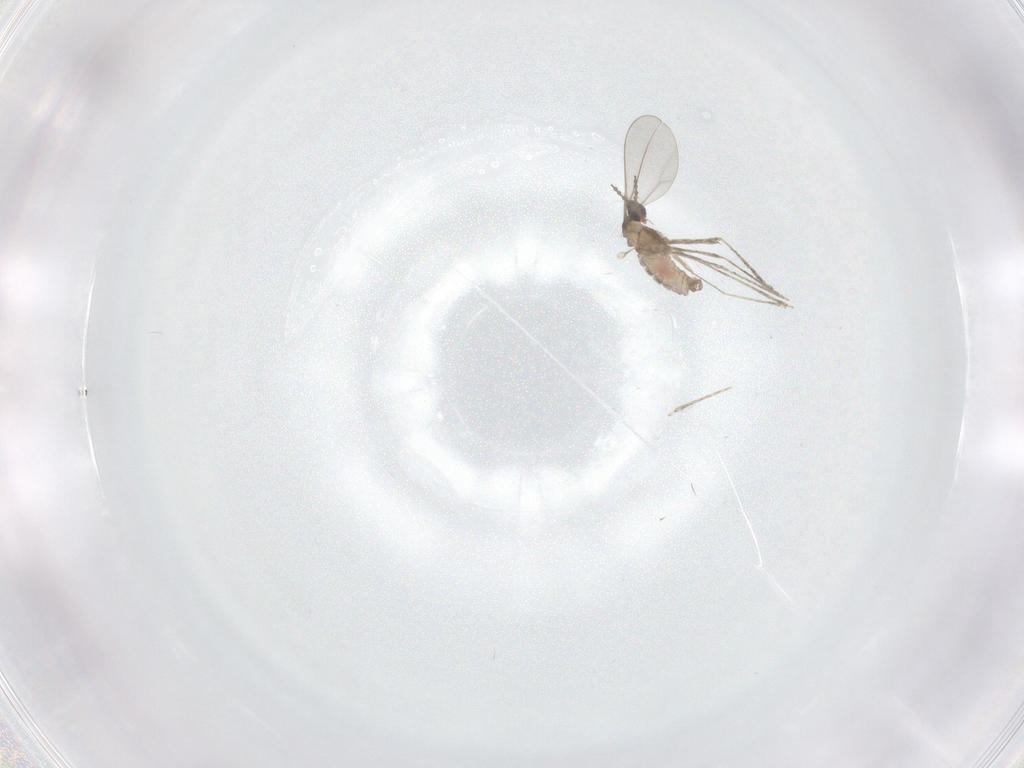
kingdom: Animalia
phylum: Arthropoda
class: Insecta
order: Diptera
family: Cecidomyiidae
